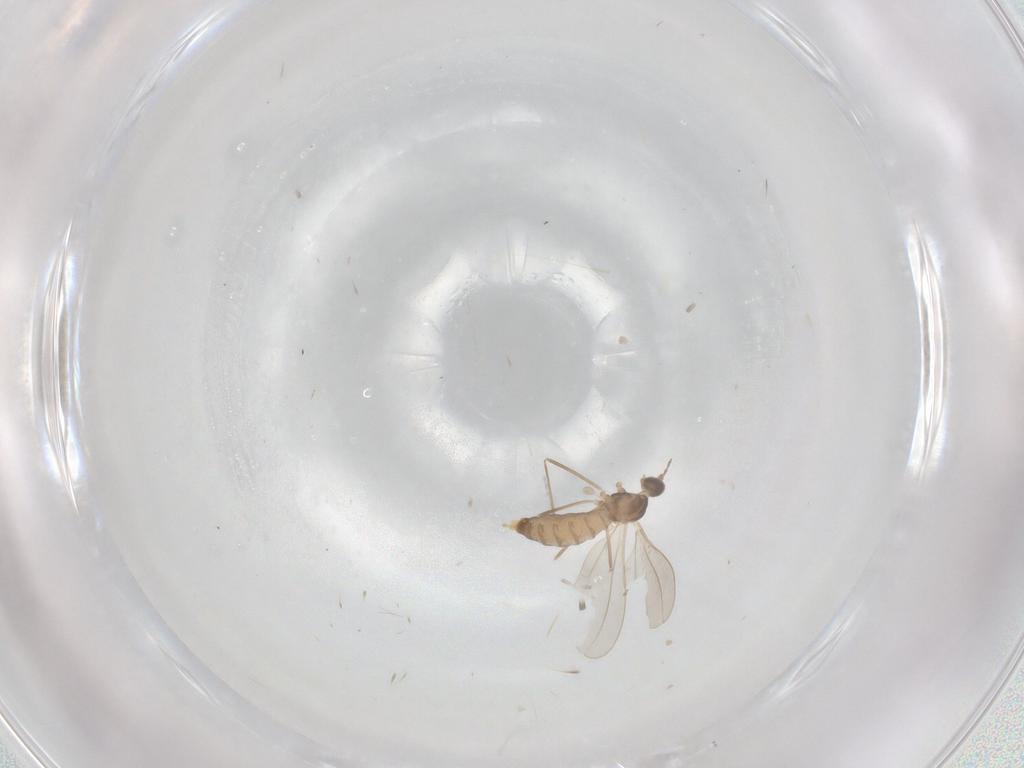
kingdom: Animalia
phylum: Arthropoda
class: Insecta
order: Diptera
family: Cecidomyiidae
